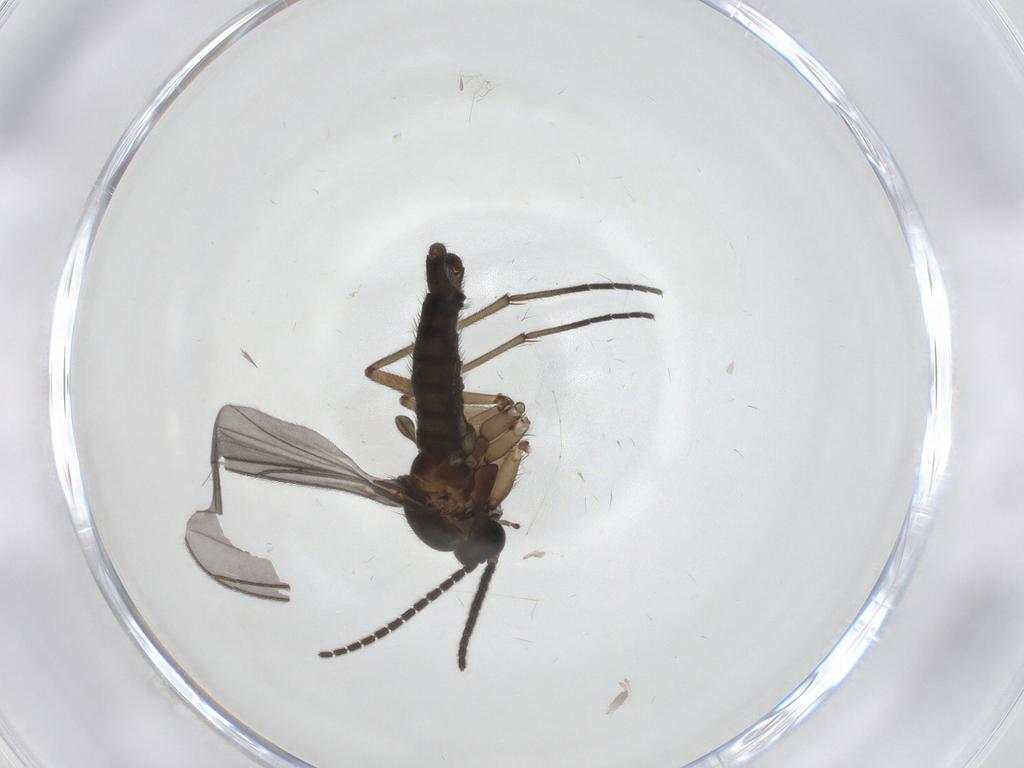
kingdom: Animalia
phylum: Arthropoda
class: Insecta
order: Diptera
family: Sciaridae
